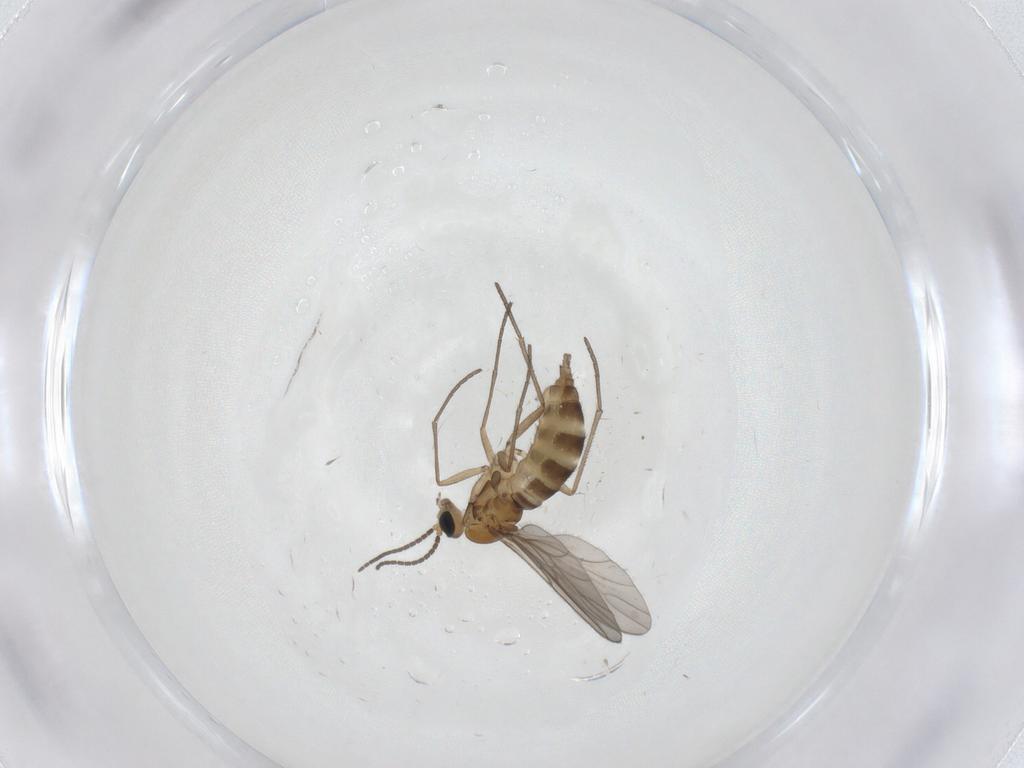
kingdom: Animalia
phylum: Arthropoda
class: Insecta
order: Diptera
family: Sciaridae
